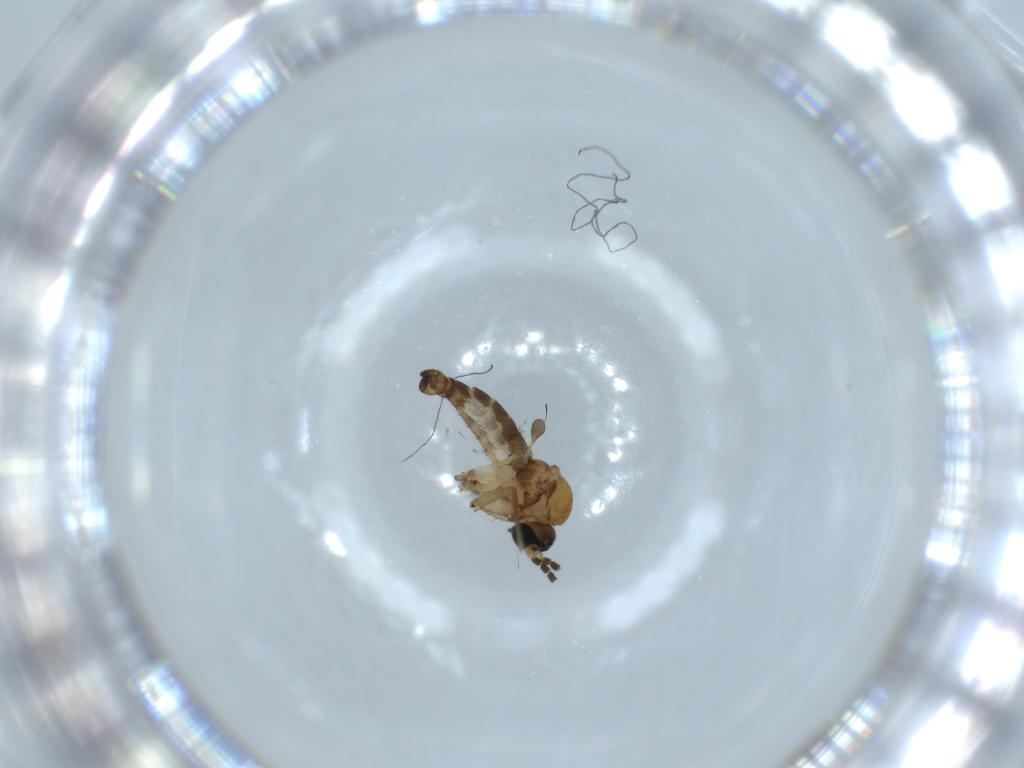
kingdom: Animalia
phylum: Arthropoda
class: Insecta
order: Diptera
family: Sciaridae
